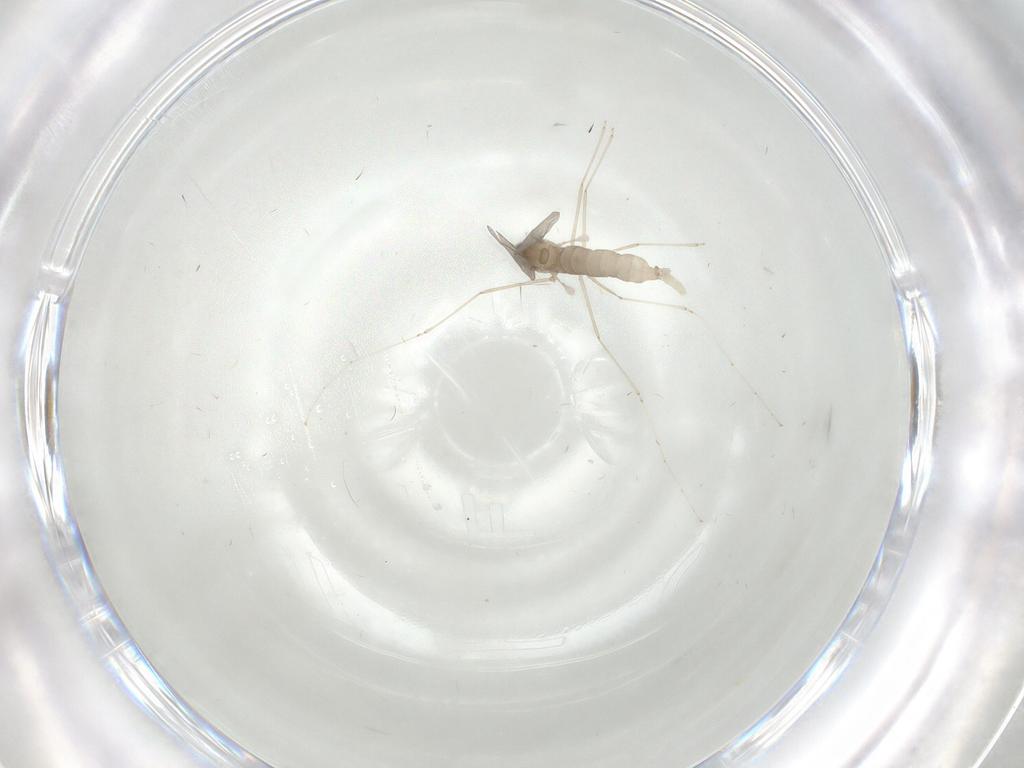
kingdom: Animalia
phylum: Arthropoda
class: Insecta
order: Diptera
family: Cecidomyiidae
